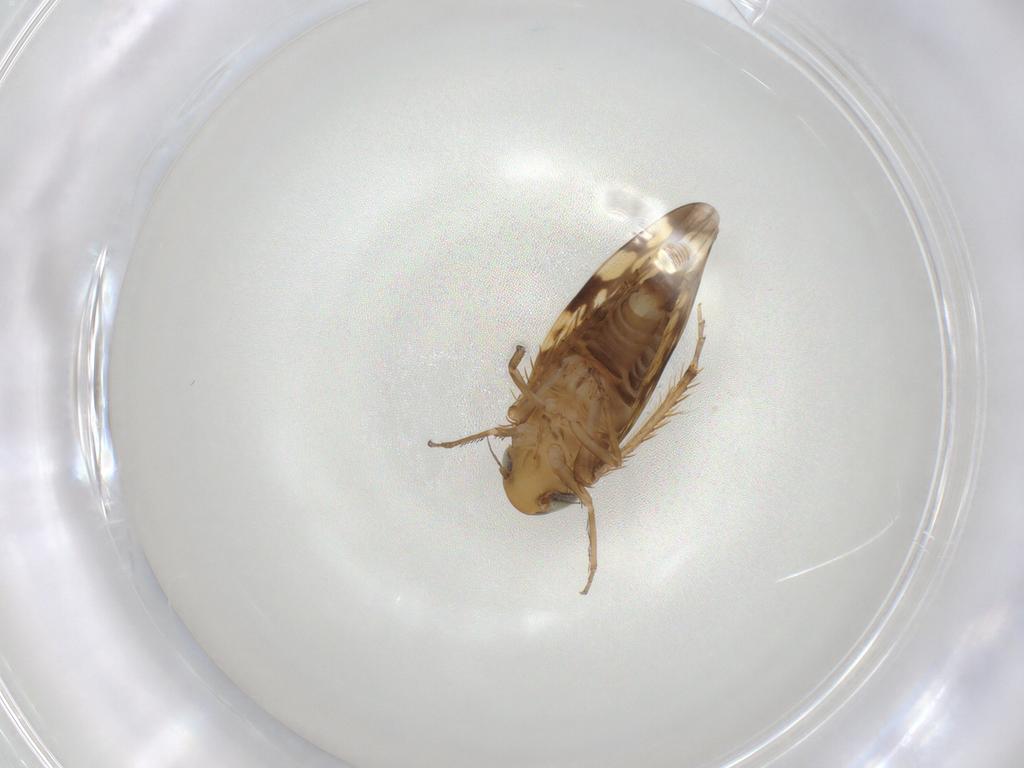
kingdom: Animalia
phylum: Arthropoda
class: Insecta
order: Hemiptera
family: Cicadellidae
